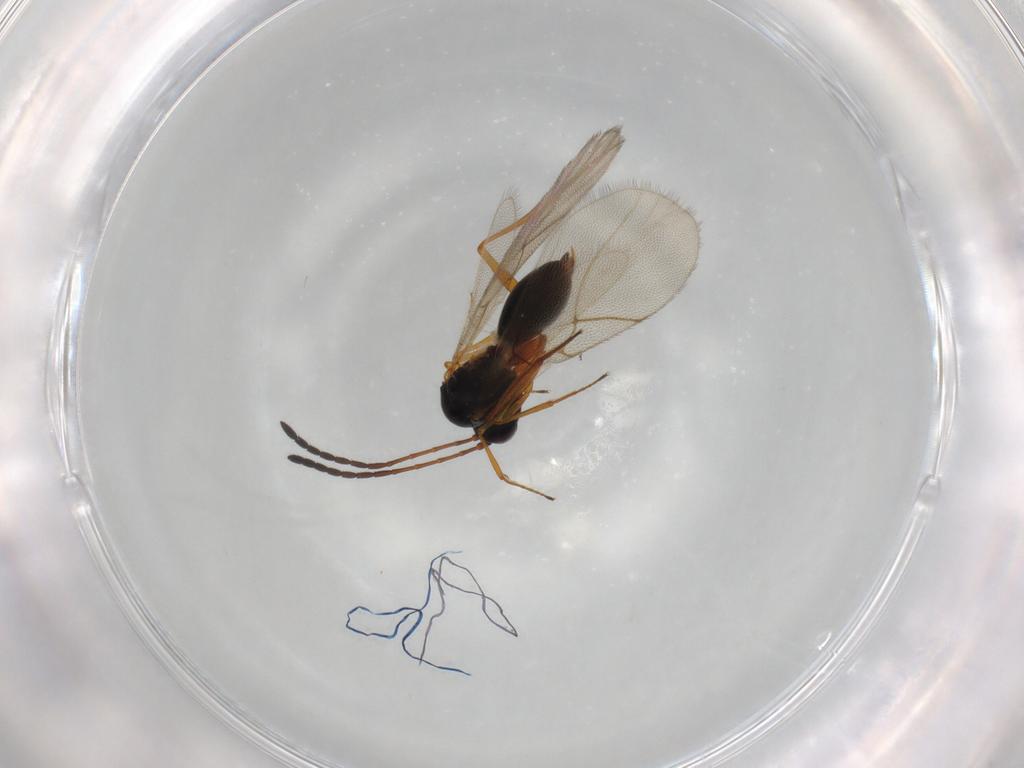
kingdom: Animalia
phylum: Arthropoda
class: Insecta
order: Hymenoptera
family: Figitidae
